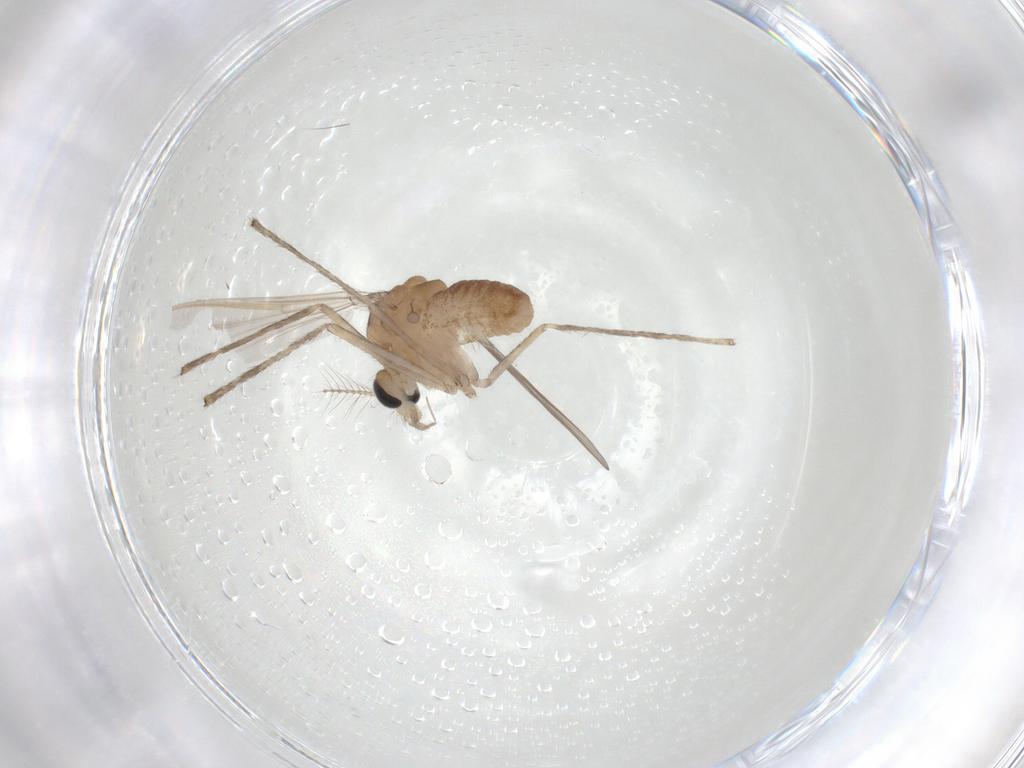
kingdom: Animalia
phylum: Arthropoda
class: Insecta
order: Diptera
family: Chironomidae
